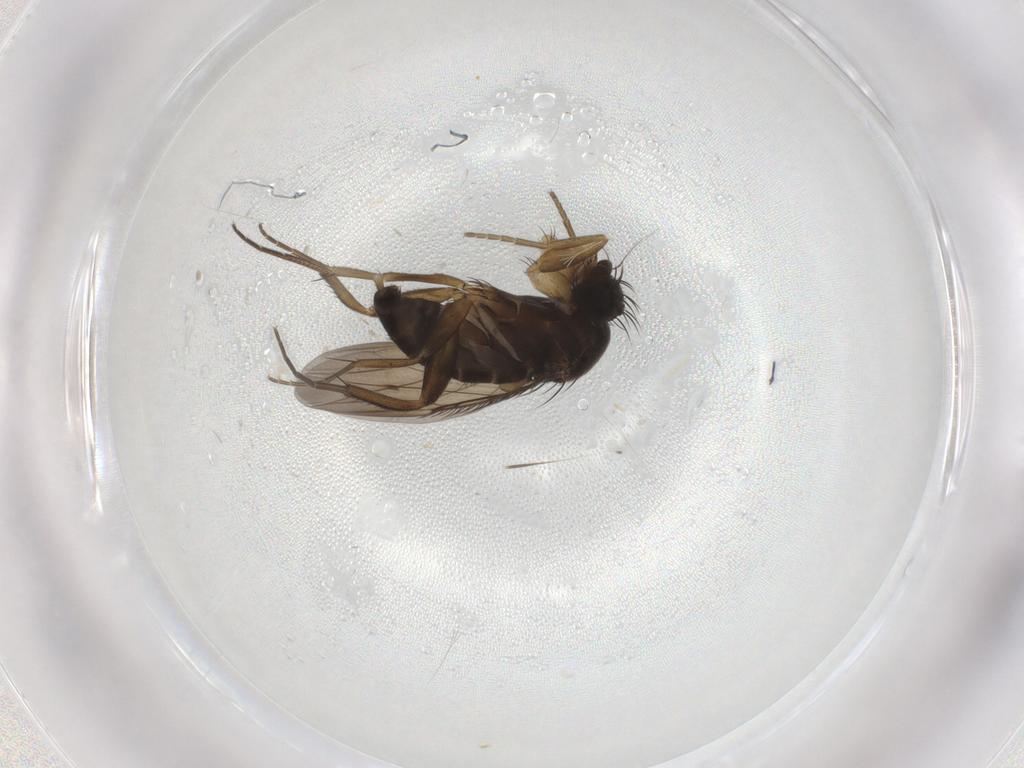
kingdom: Animalia
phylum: Arthropoda
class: Insecta
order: Diptera
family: Phoridae
